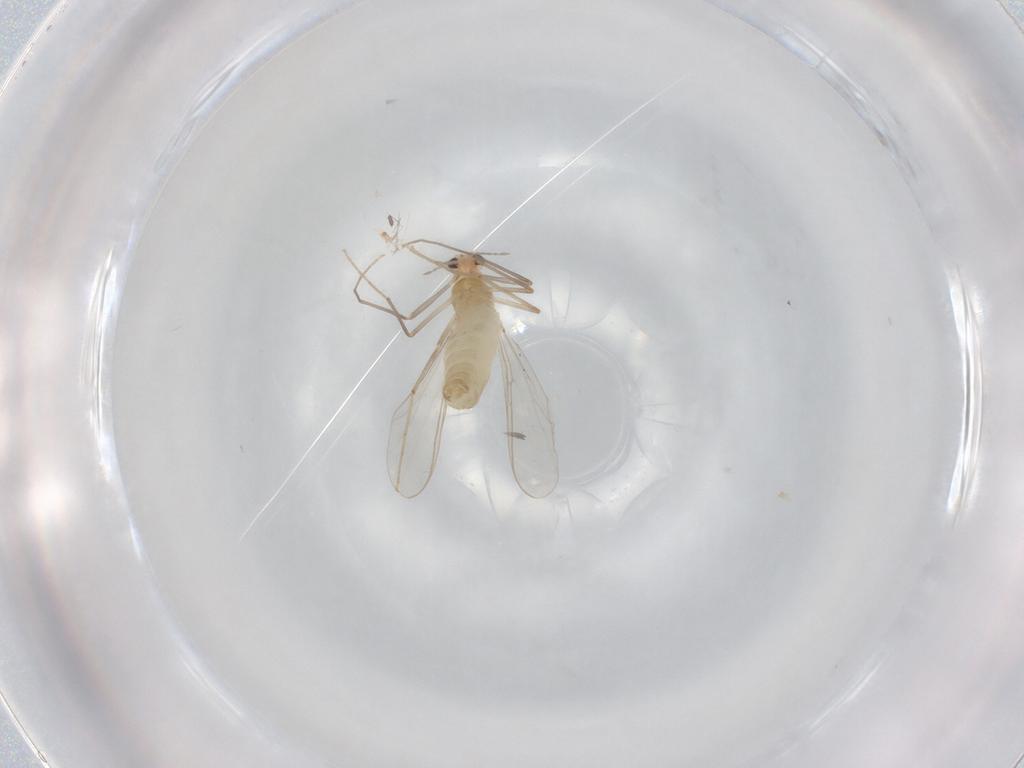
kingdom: Animalia
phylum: Arthropoda
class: Insecta
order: Diptera
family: Chironomidae
